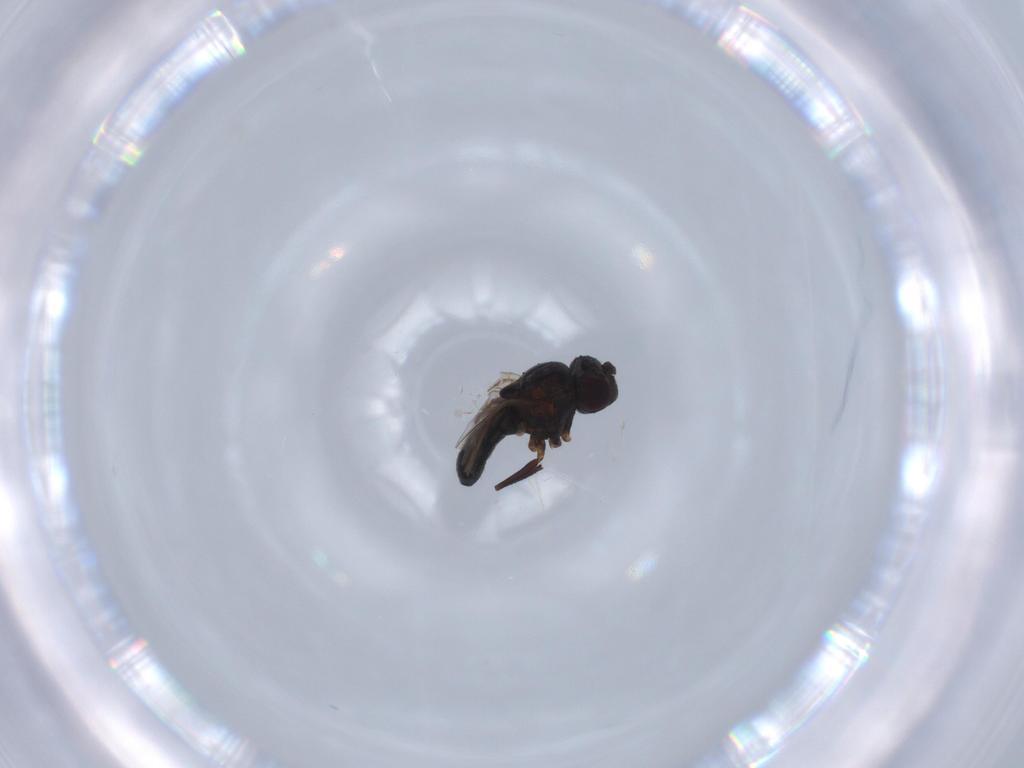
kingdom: Animalia
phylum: Arthropoda
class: Insecta
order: Diptera
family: Ephydridae
